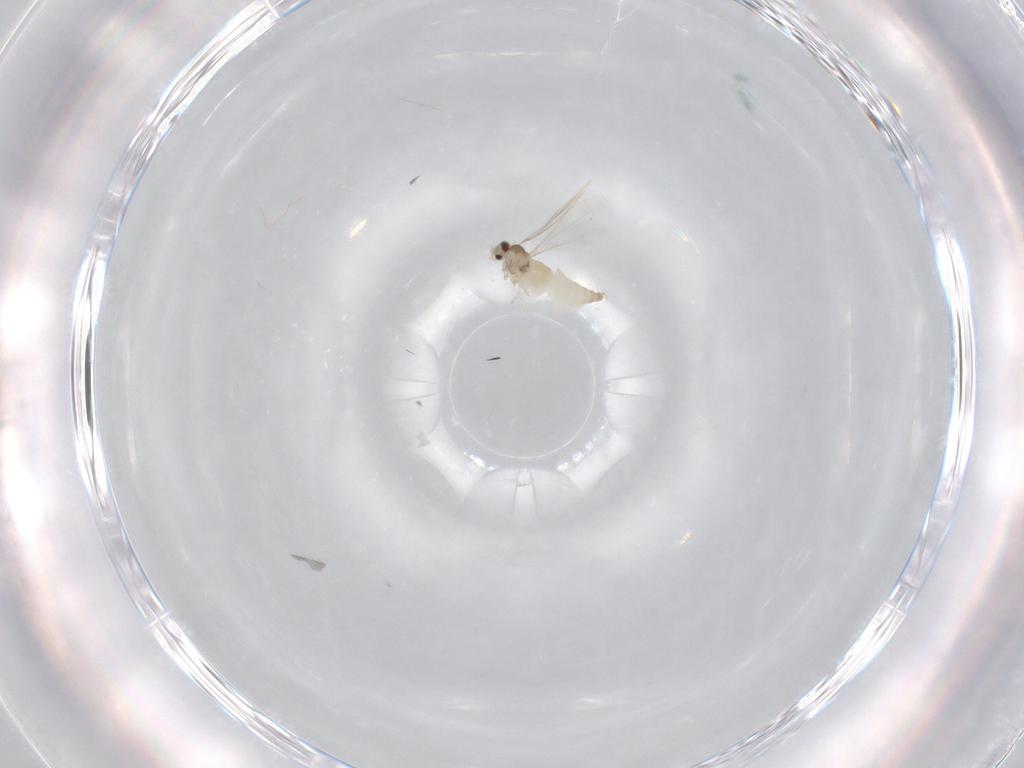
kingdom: Animalia
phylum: Arthropoda
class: Insecta
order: Diptera
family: Cecidomyiidae
